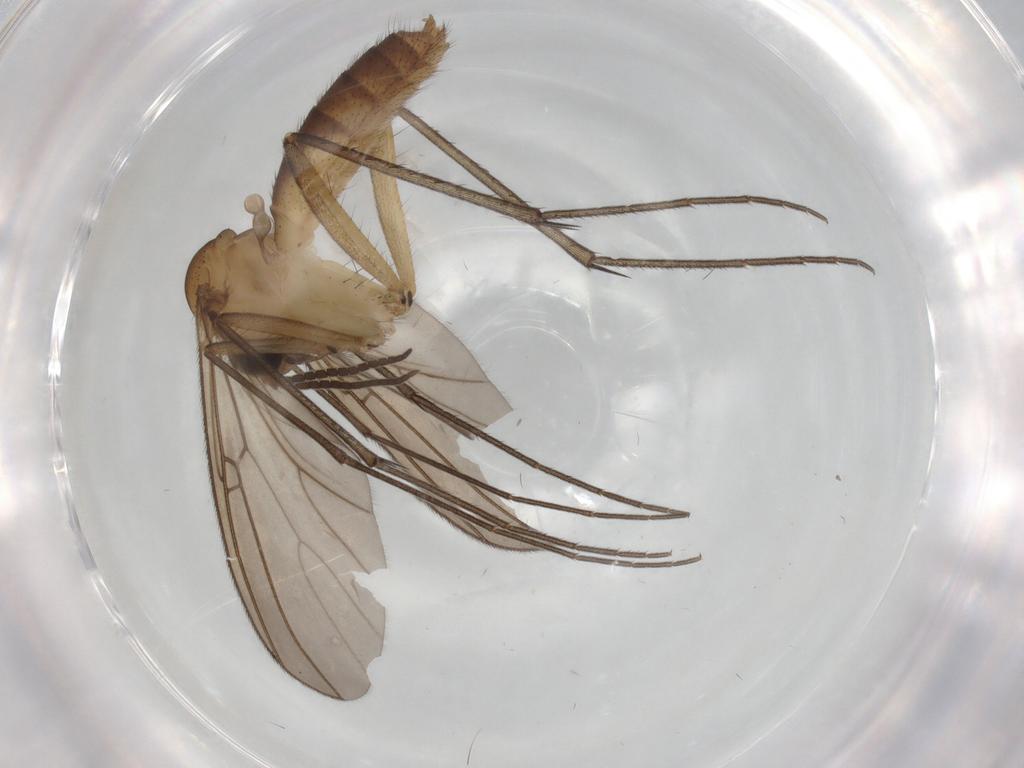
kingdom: Animalia
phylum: Arthropoda
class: Insecta
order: Diptera
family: Mycetophilidae
